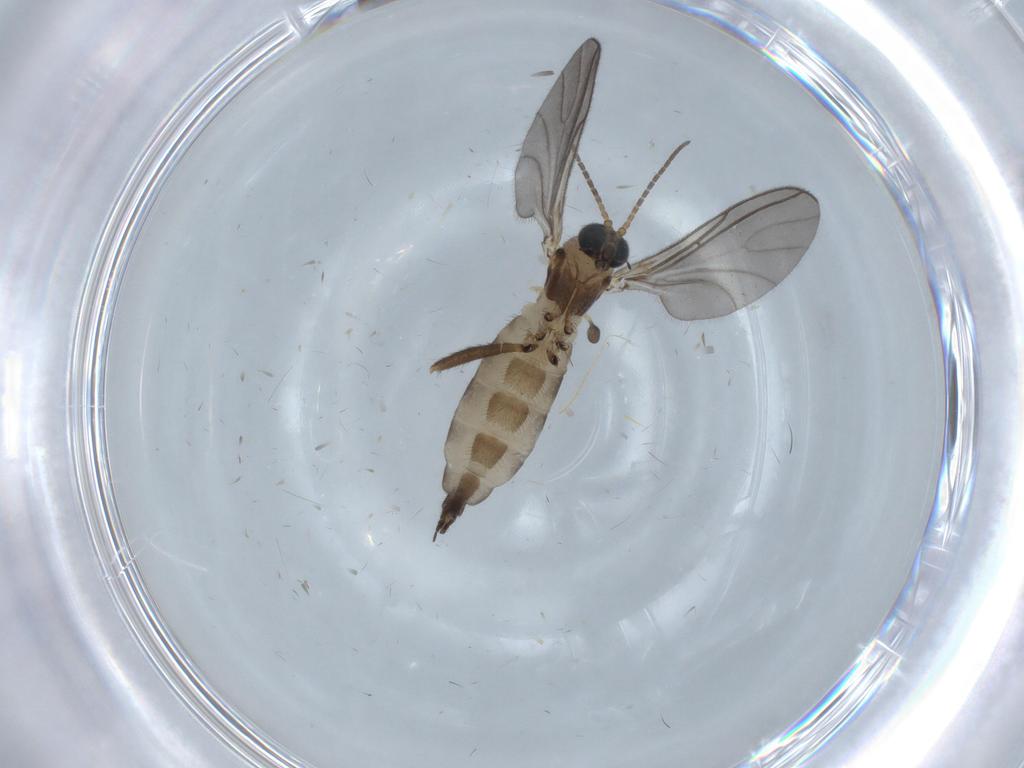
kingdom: Animalia
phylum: Arthropoda
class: Insecta
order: Diptera
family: Sciaridae
